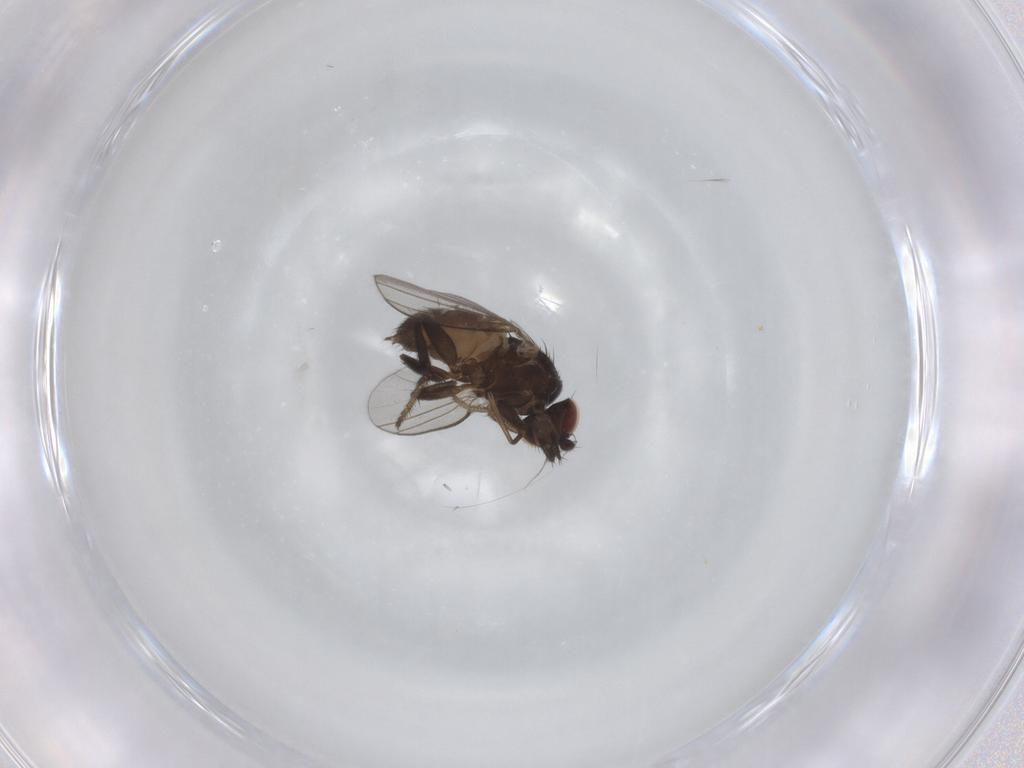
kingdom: Animalia
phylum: Arthropoda
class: Insecta
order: Diptera
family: Milichiidae
